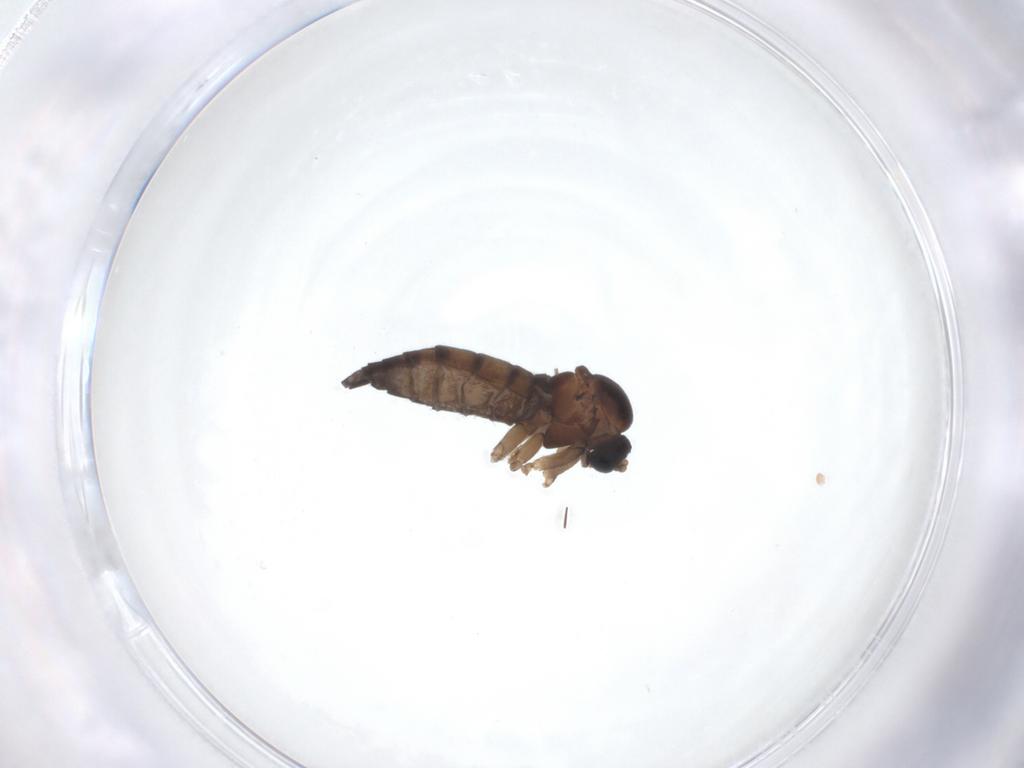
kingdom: Animalia
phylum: Arthropoda
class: Insecta
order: Diptera
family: Sciaridae
